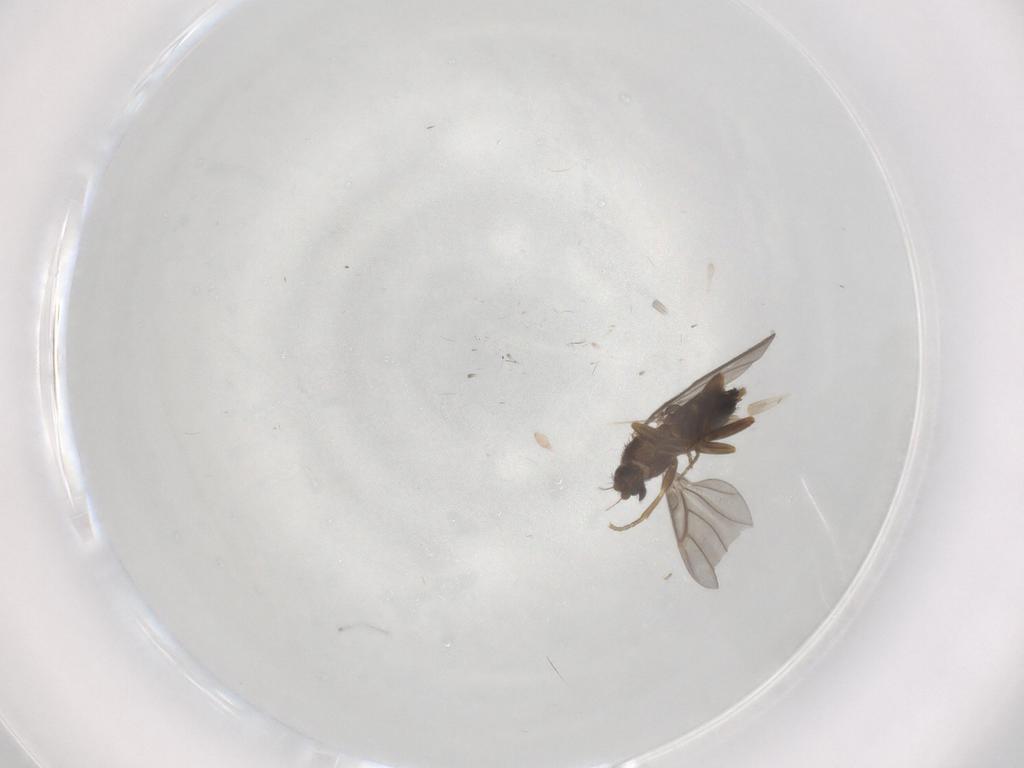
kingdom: Animalia
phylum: Arthropoda
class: Insecta
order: Diptera
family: Phoridae
